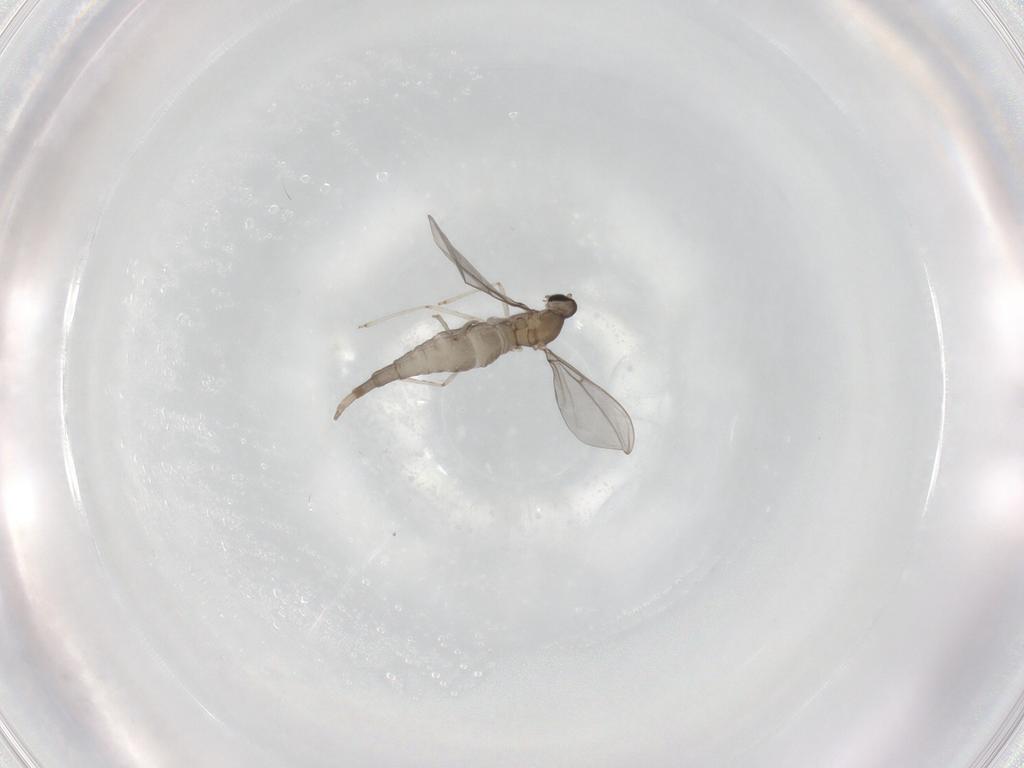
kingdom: Animalia
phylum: Arthropoda
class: Insecta
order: Diptera
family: Cecidomyiidae
